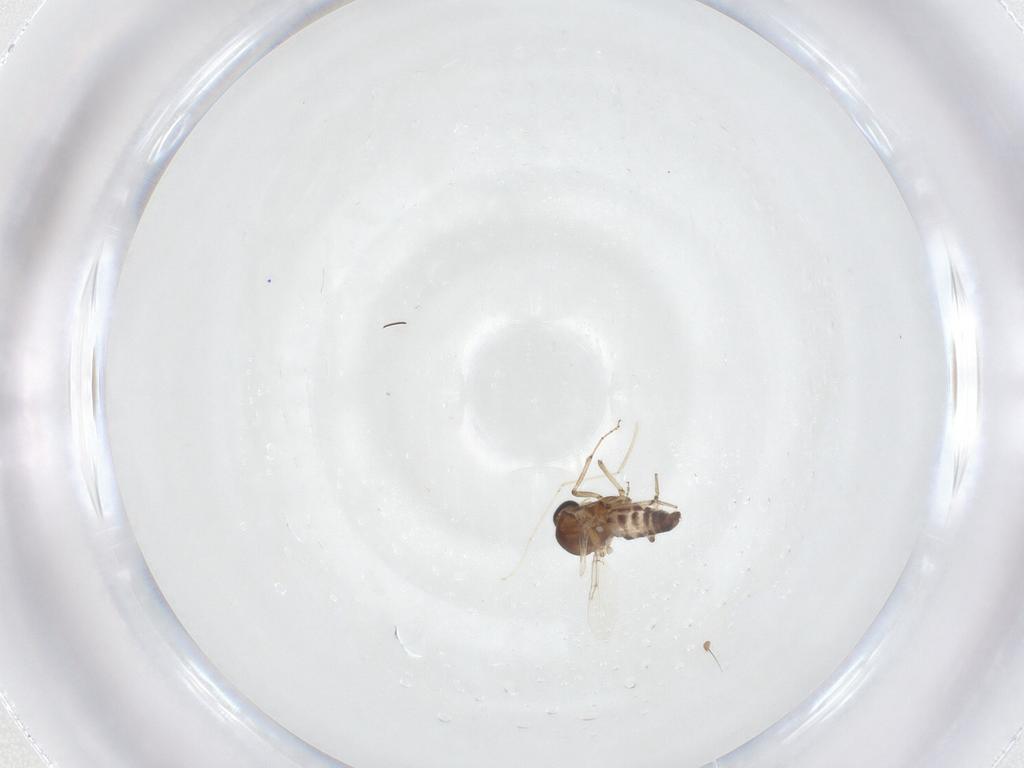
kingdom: Animalia
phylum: Arthropoda
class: Insecta
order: Diptera
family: Ceratopogonidae
